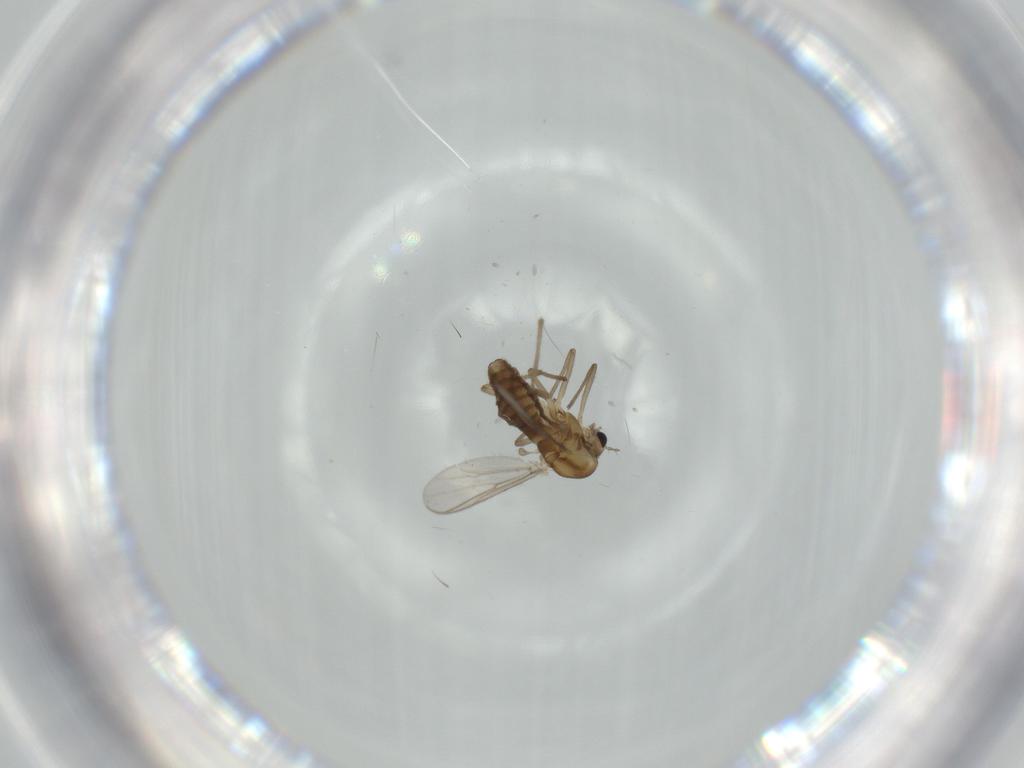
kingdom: Animalia
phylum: Arthropoda
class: Insecta
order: Diptera
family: Chironomidae
